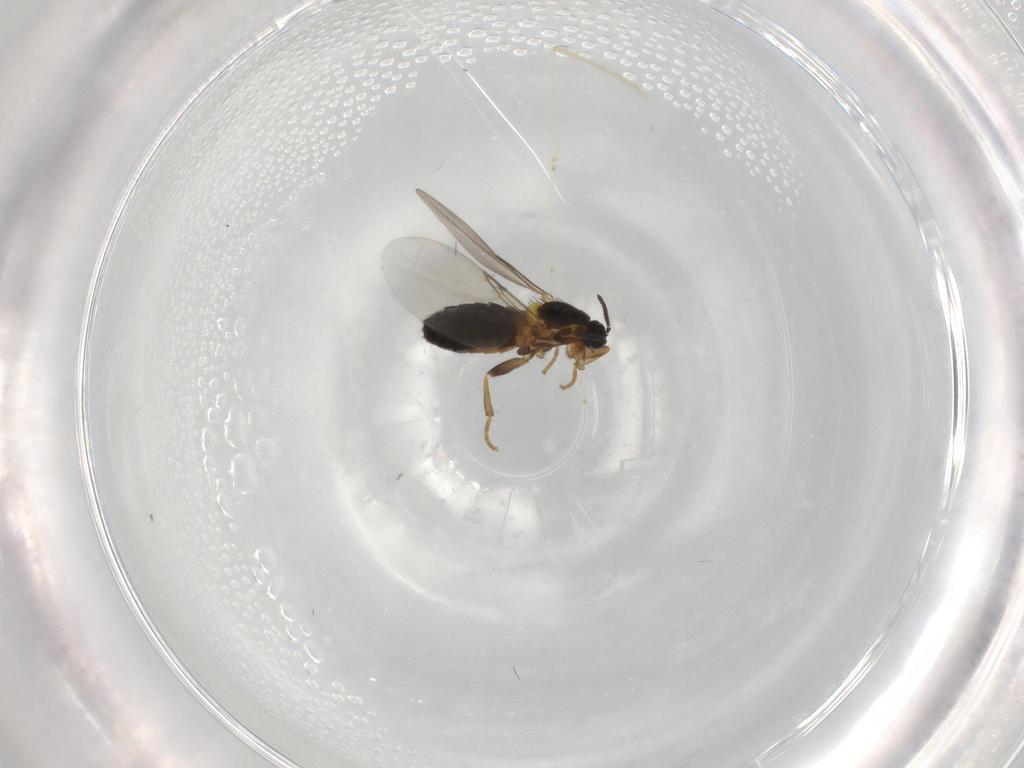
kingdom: Animalia
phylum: Arthropoda
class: Insecta
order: Diptera
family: Scatopsidae
